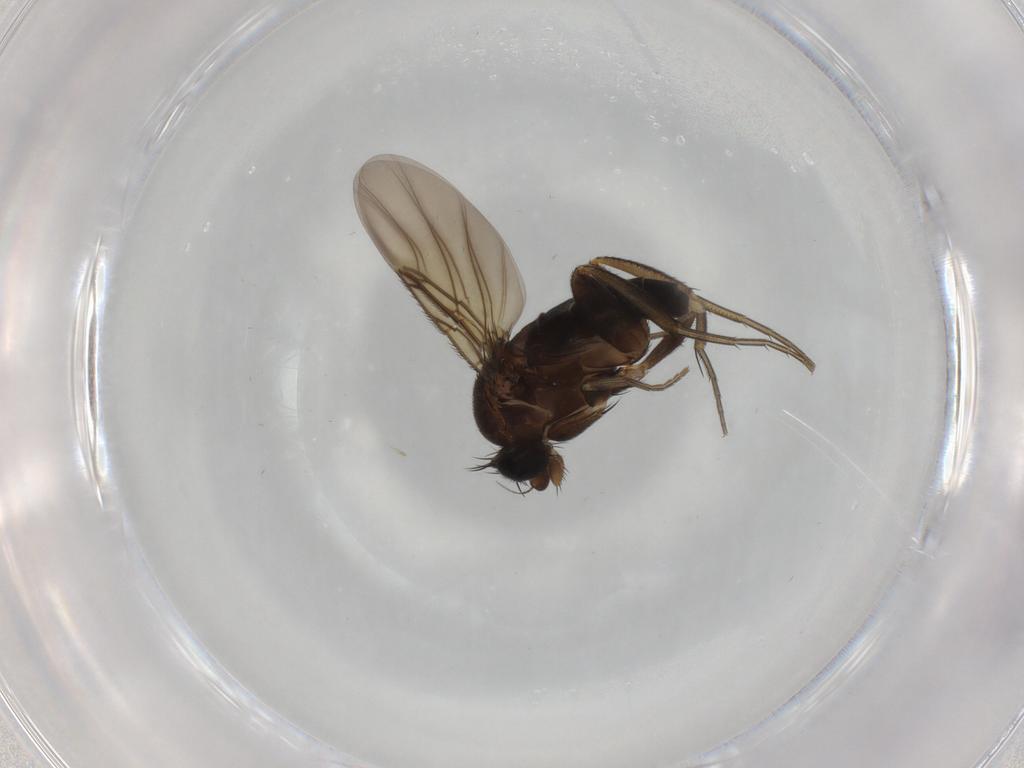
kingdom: Animalia
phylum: Arthropoda
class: Insecta
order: Diptera
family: Phoridae
